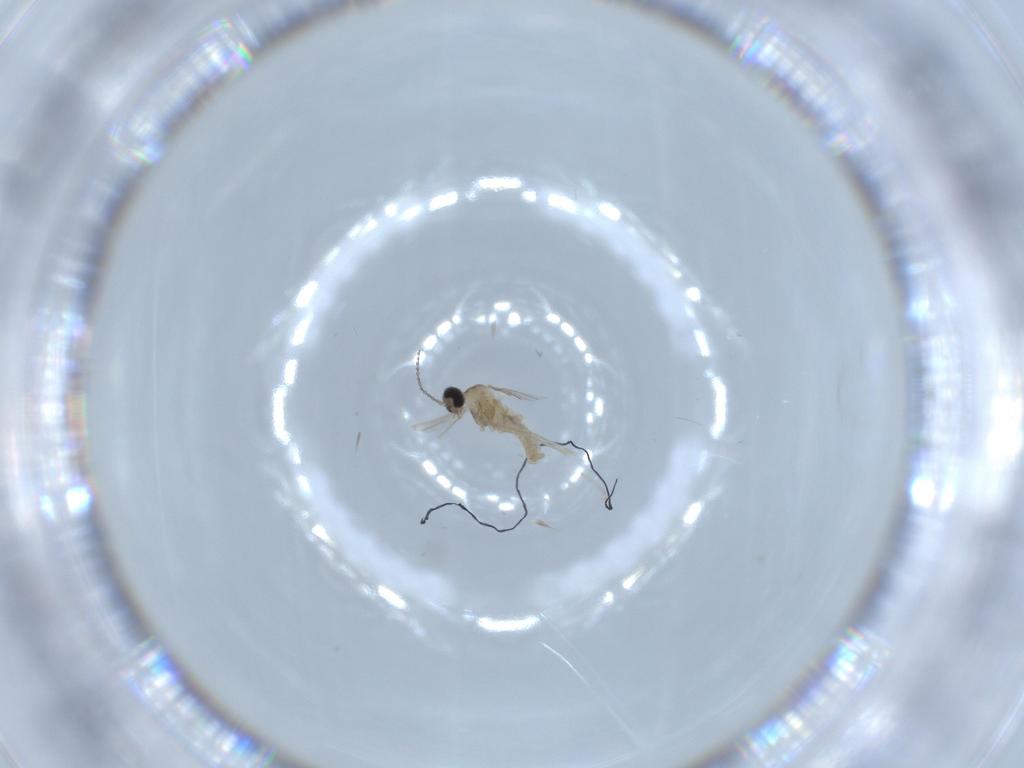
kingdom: Animalia
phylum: Arthropoda
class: Insecta
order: Diptera
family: Cecidomyiidae
